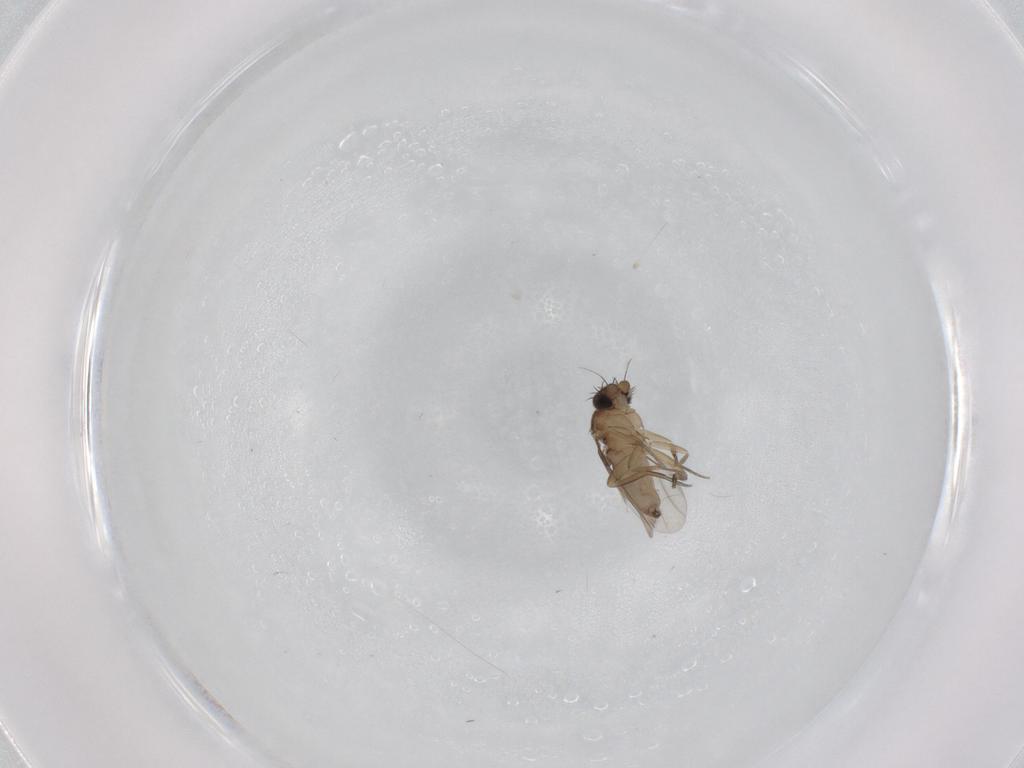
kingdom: Animalia
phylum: Arthropoda
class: Insecta
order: Diptera
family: Phoridae
